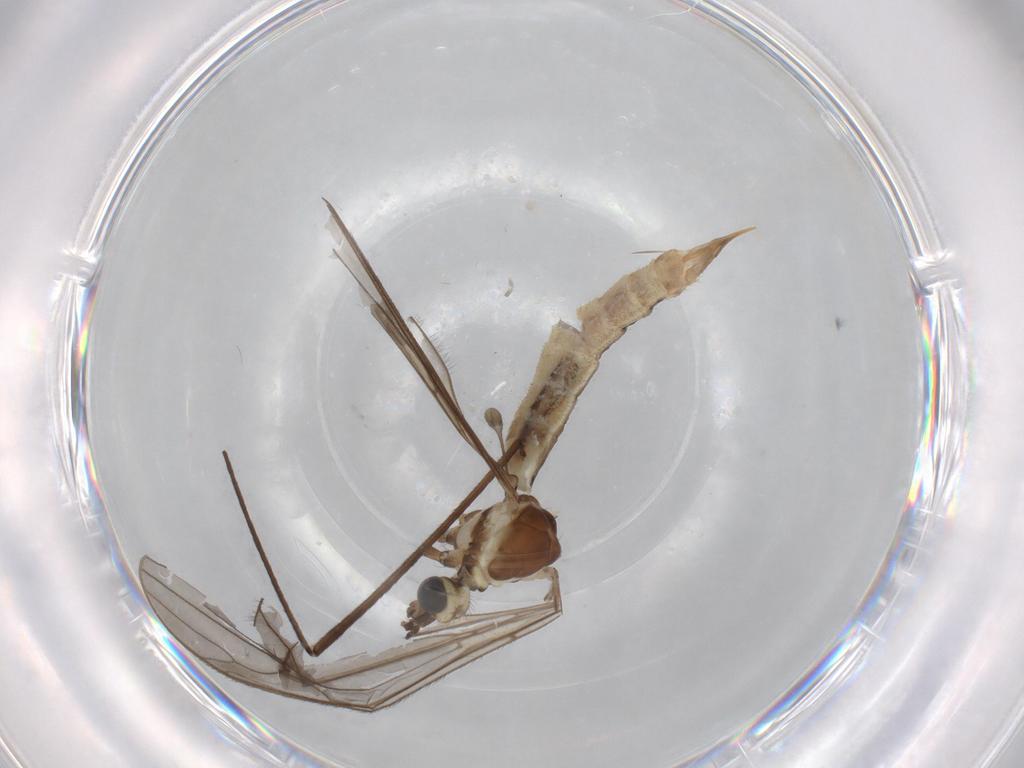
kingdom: Animalia
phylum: Arthropoda
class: Insecta
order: Diptera
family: Cecidomyiidae
